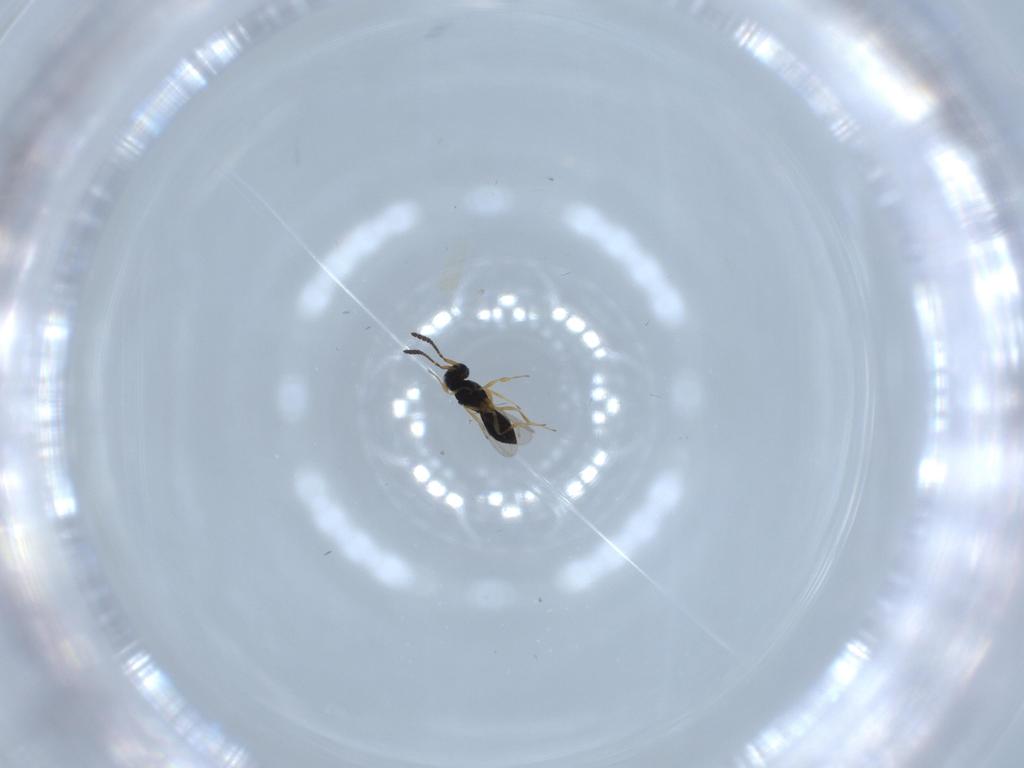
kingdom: Animalia
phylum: Arthropoda
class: Insecta
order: Hymenoptera
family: Scelionidae
